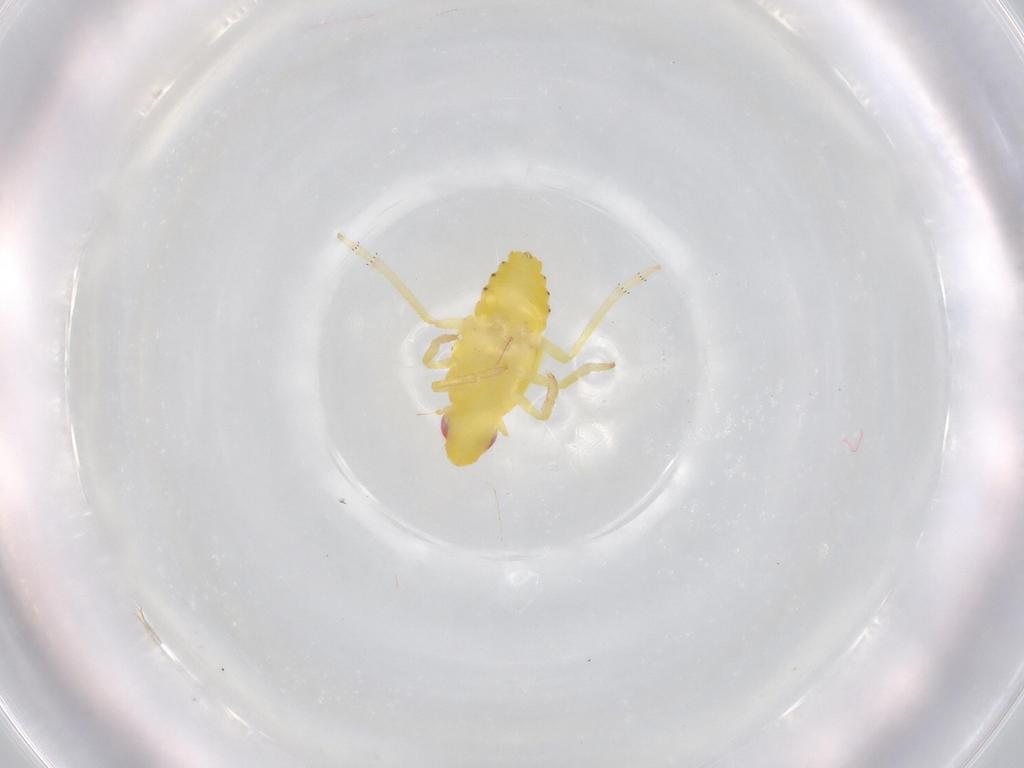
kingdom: Animalia
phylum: Arthropoda
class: Insecta
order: Hemiptera
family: Tropiduchidae
